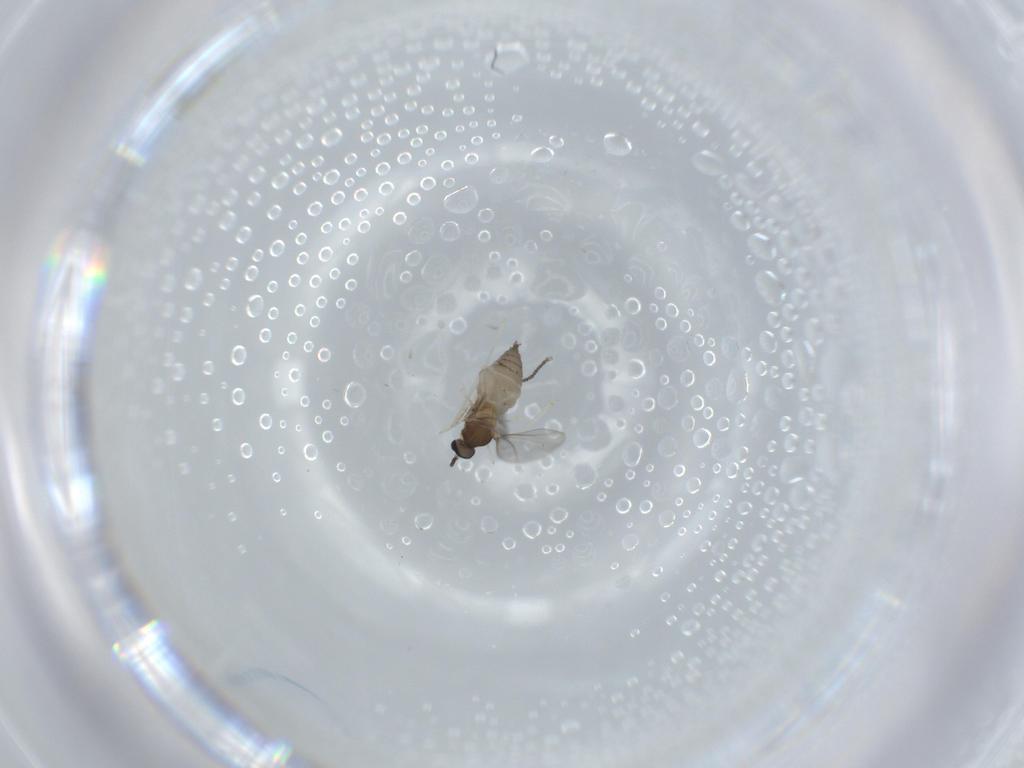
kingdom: Animalia
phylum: Arthropoda
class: Insecta
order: Diptera
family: Cecidomyiidae
